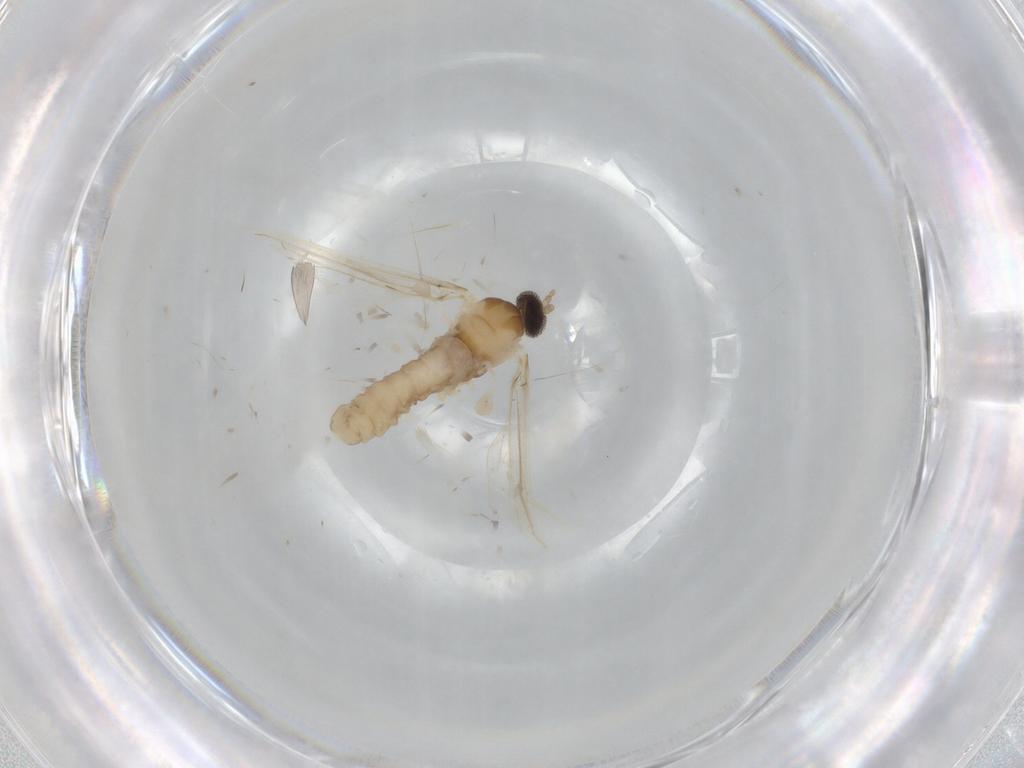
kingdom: Animalia
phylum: Arthropoda
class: Insecta
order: Diptera
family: Cecidomyiidae
